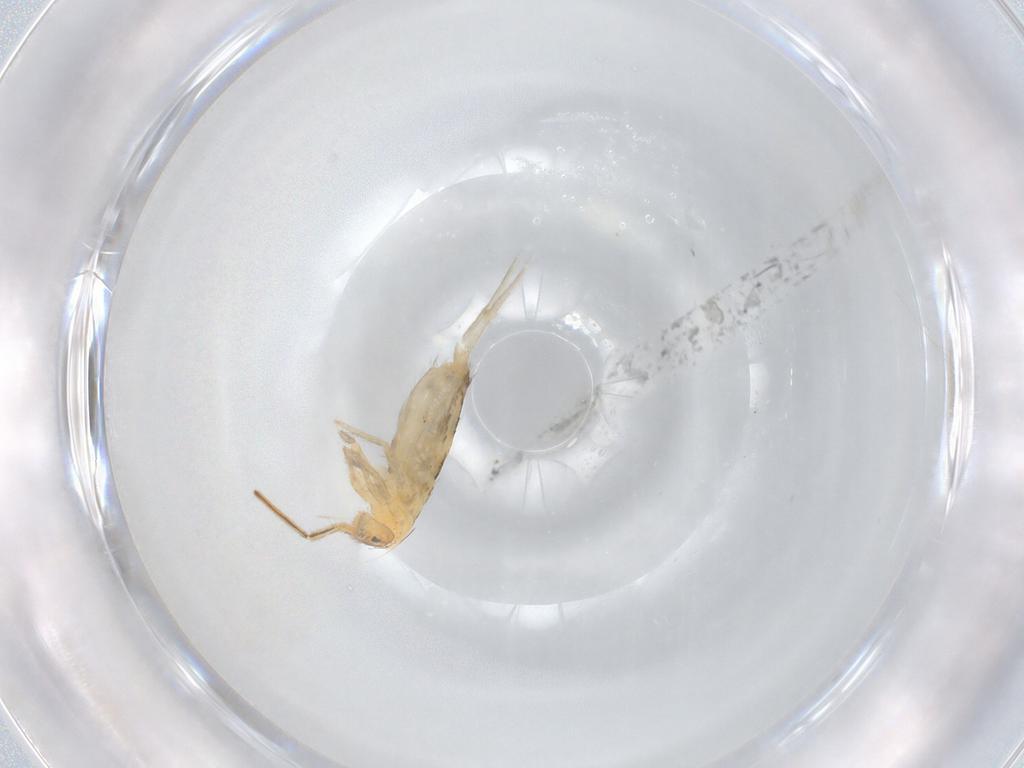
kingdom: Animalia
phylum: Arthropoda
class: Collembola
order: Entomobryomorpha
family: Entomobryidae
